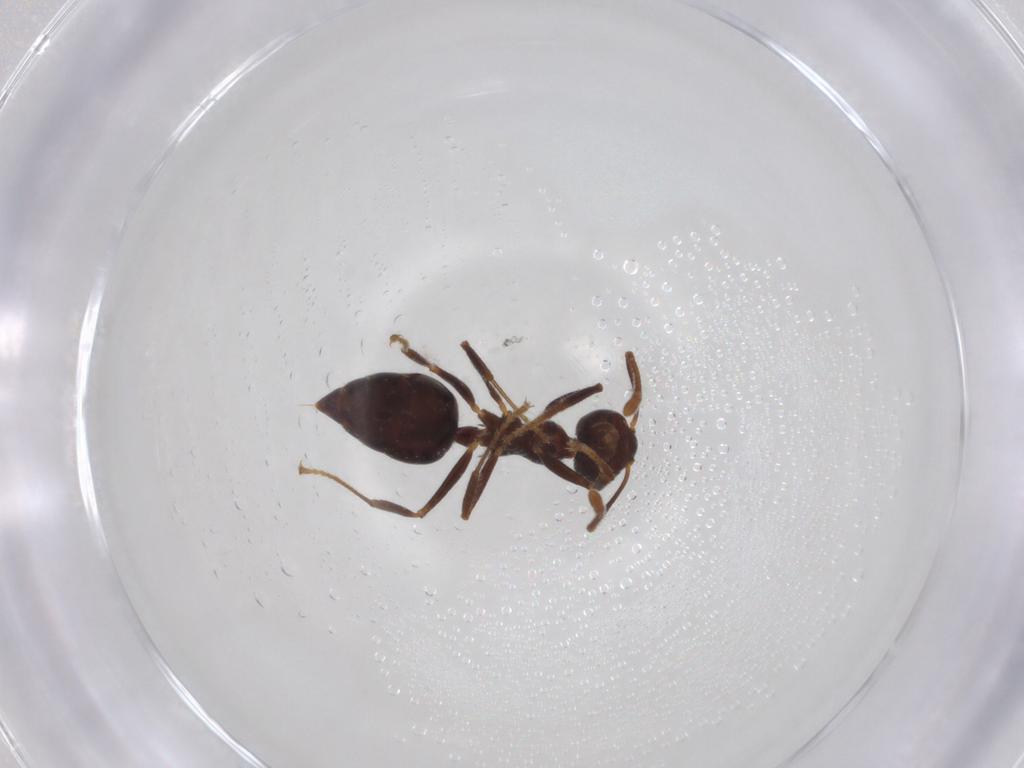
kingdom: Animalia
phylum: Arthropoda
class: Insecta
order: Hymenoptera
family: Formicidae
